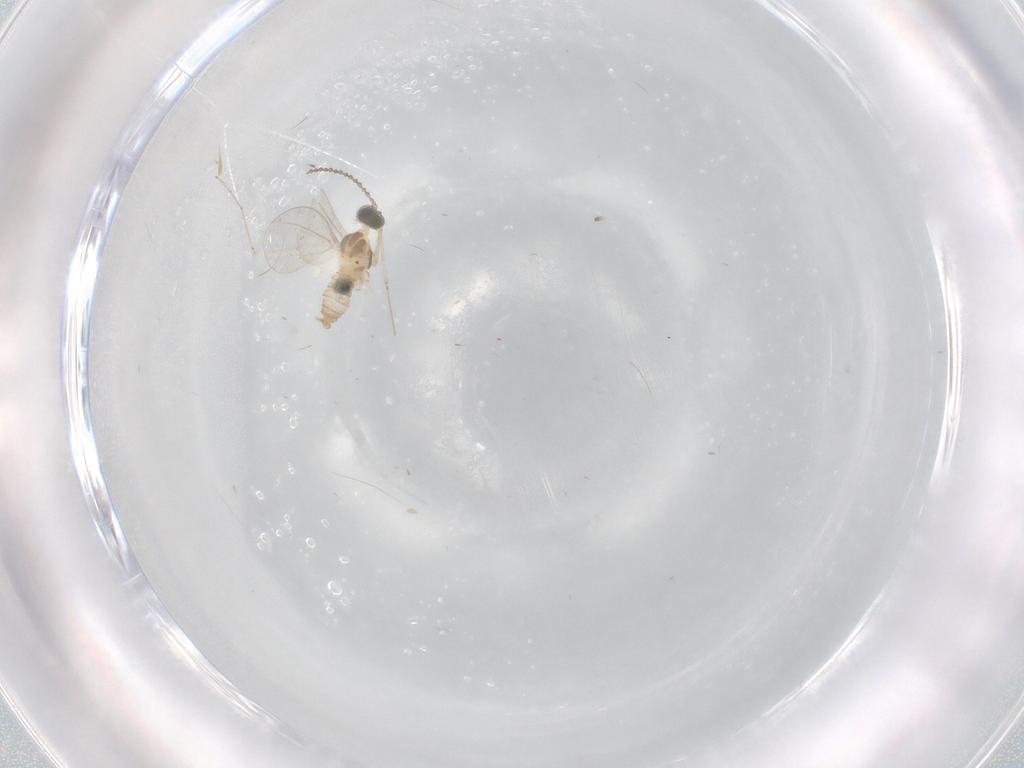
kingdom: Animalia
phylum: Arthropoda
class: Insecta
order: Diptera
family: Cecidomyiidae
